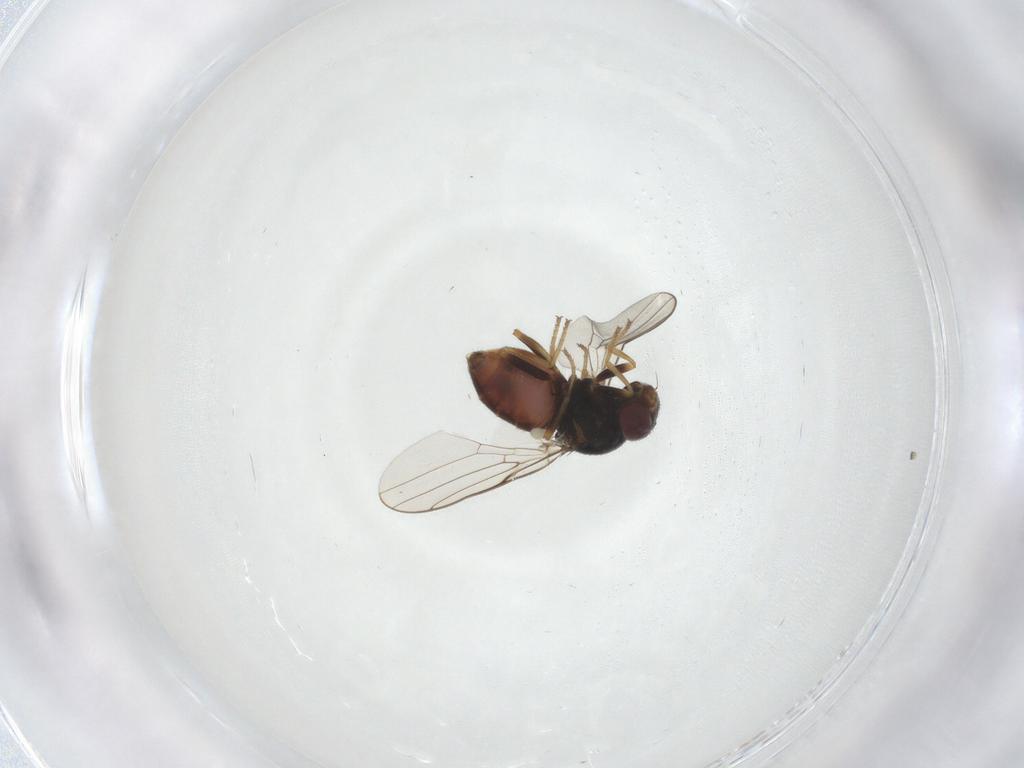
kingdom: Animalia
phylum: Arthropoda
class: Insecta
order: Diptera
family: Chloropidae
